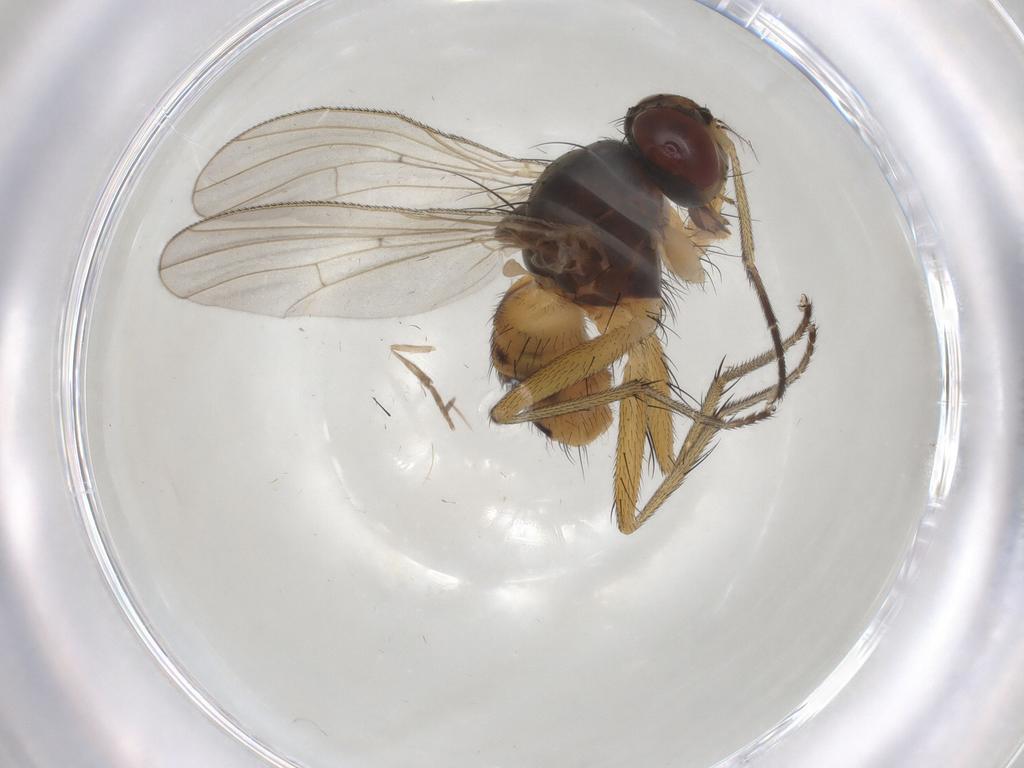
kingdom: Animalia
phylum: Arthropoda
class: Insecta
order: Diptera
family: Muscidae
